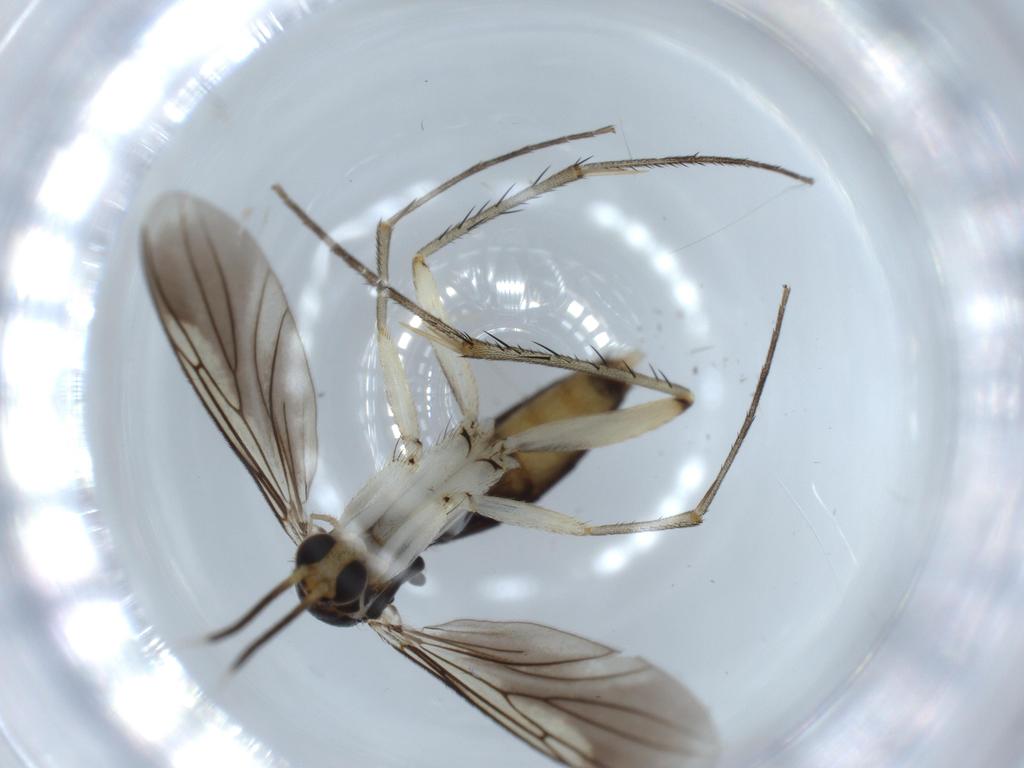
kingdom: Animalia
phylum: Arthropoda
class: Insecta
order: Diptera
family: Mycetophilidae
